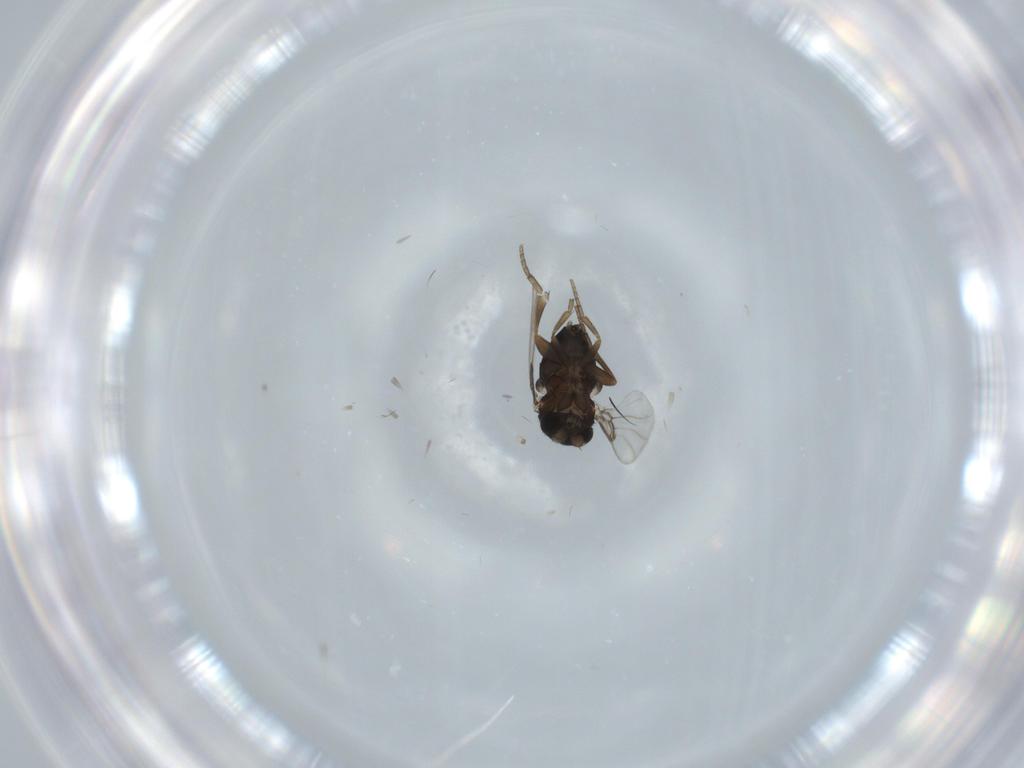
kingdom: Animalia
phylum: Arthropoda
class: Insecta
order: Diptera
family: Phoridae
